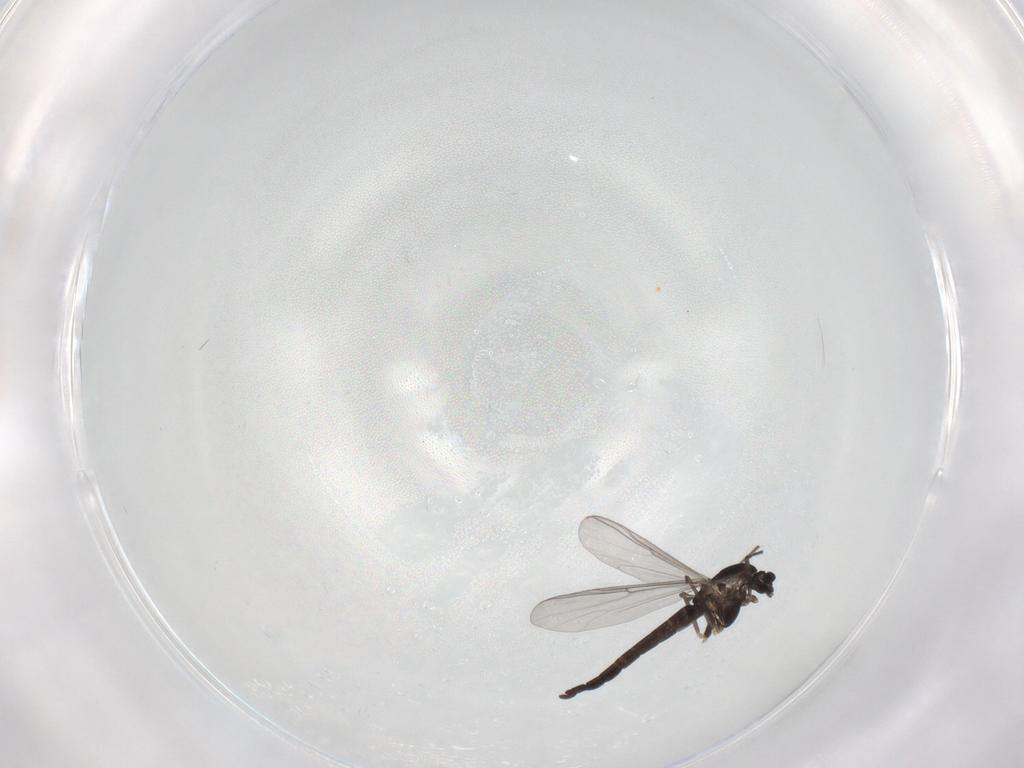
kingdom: Animalia
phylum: Arthropoda
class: Insecta
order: Diptera
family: Chironomidae
